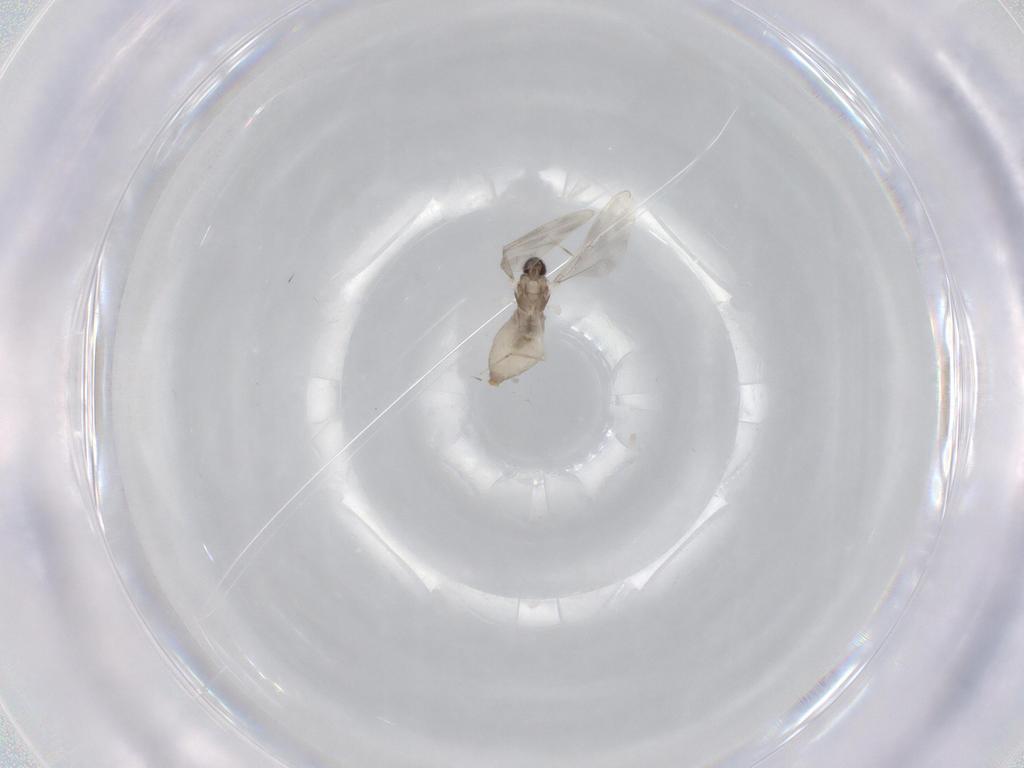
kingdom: Animalia
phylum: Arthropoda
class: Insecta
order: Diptera
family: Cecidomyiidae
